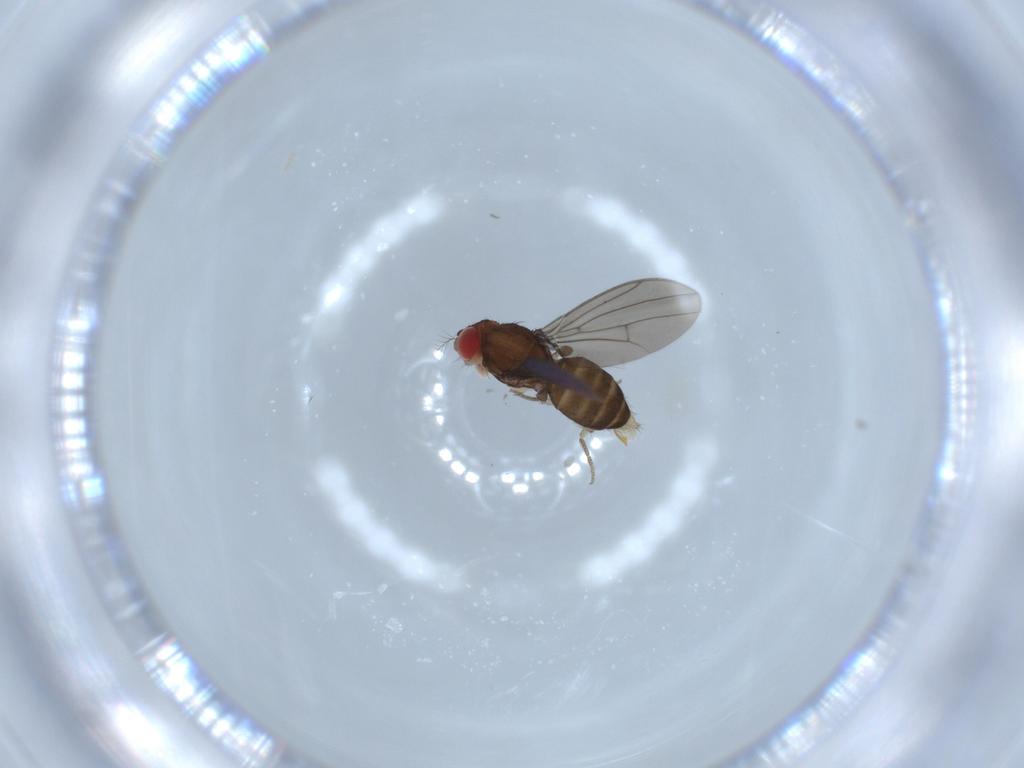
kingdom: Animalia
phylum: Arthropoda
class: Insecta
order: Diptera
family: Drosophilidae
